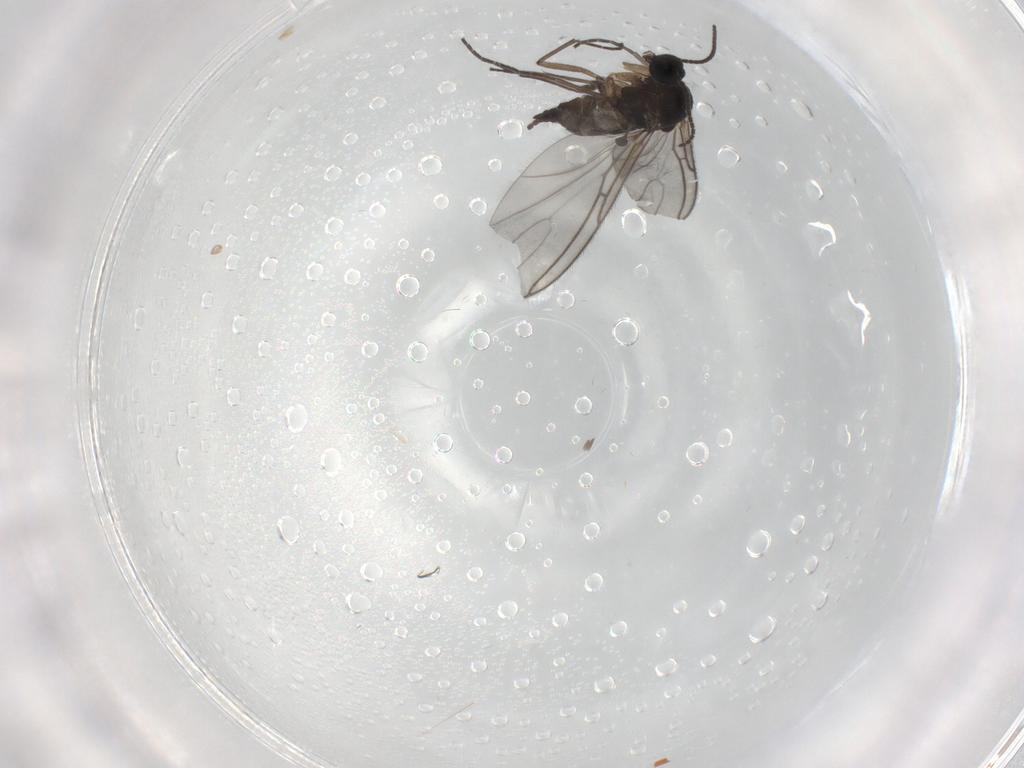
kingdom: Animalia
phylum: Arthropoda
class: Insecta
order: Diptera
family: Sciaridae
